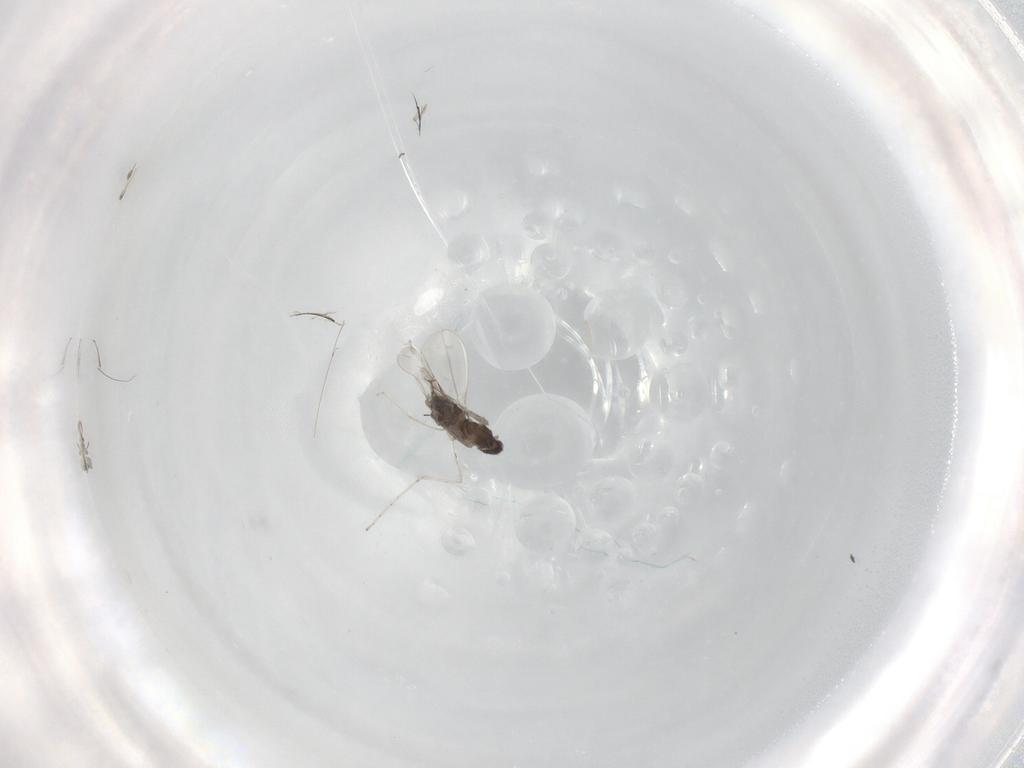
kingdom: Animalia
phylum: Arthropoda
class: Insecta
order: Diptera
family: Cecidomyiidae
